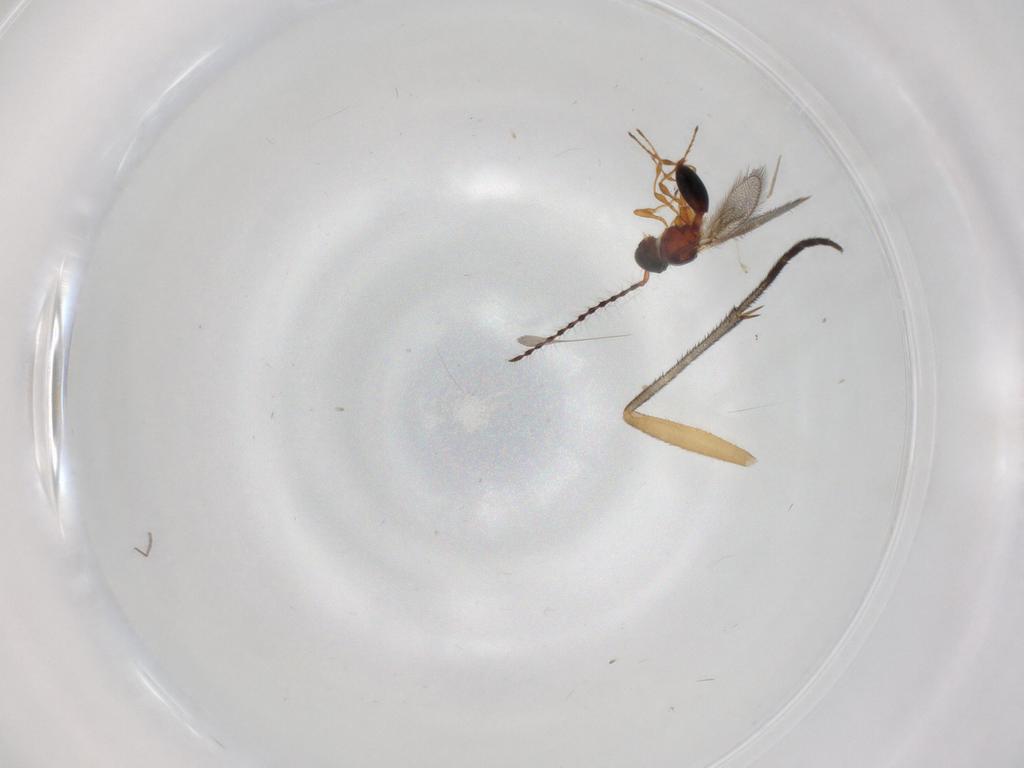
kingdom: Animalia
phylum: Arthropoda
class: Insecta
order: Hymenoptera
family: Diapriidae
